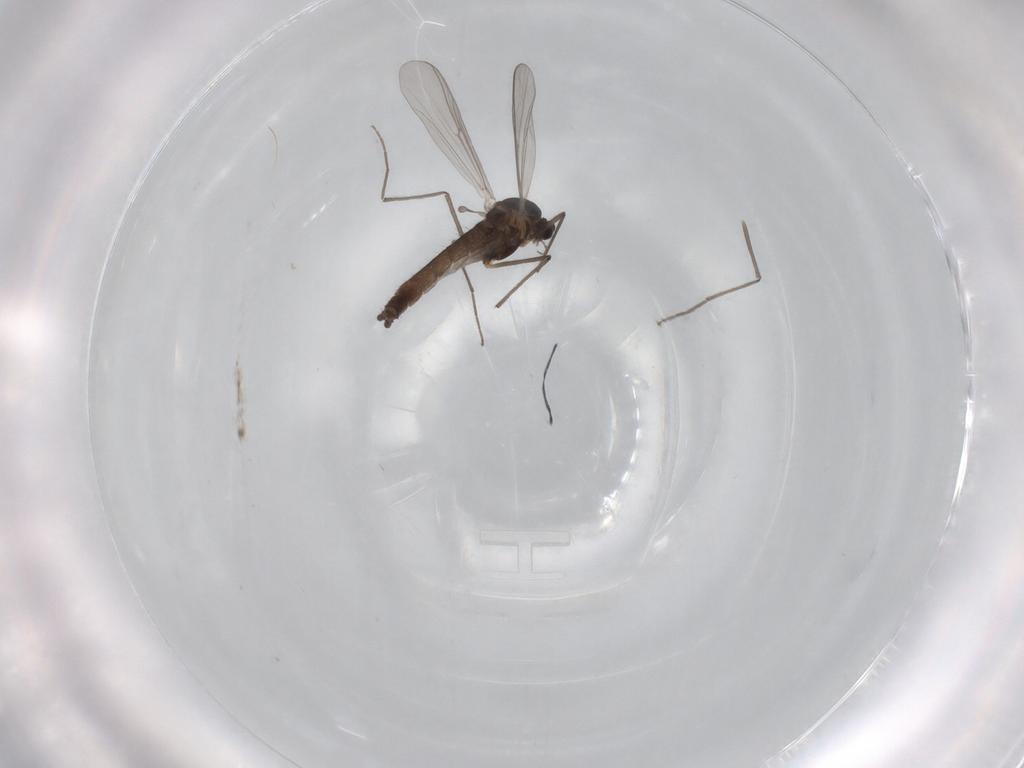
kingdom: Animalia
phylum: Arthropoda
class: Insecta
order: Diptera
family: Chironomidae
